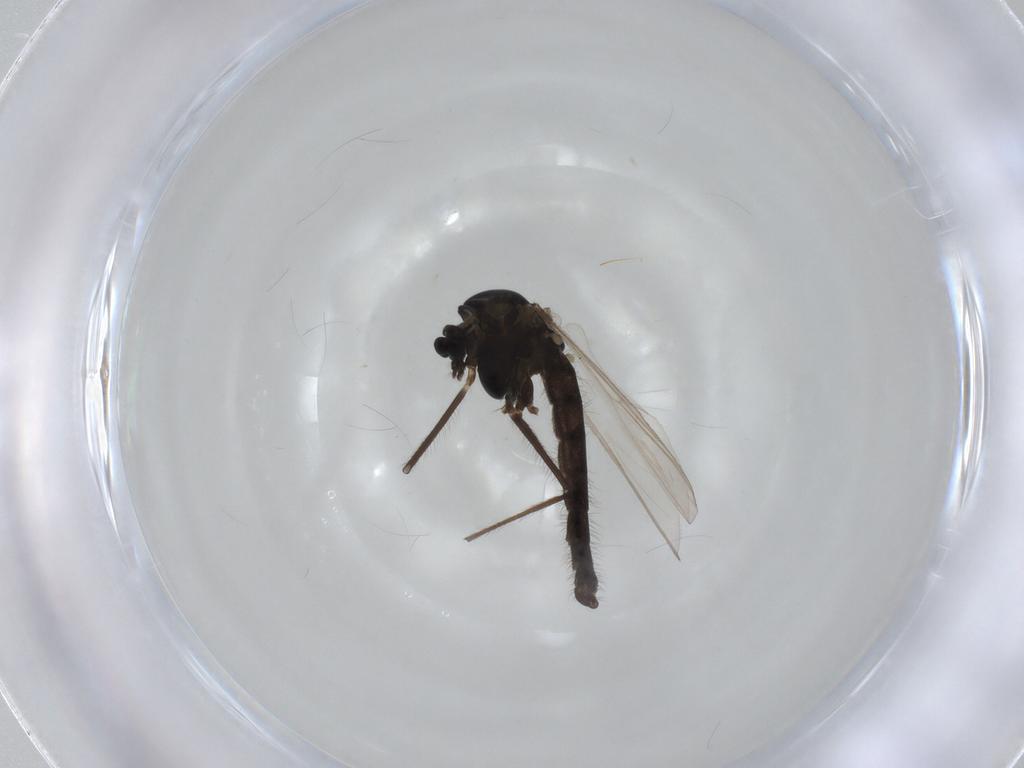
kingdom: Animalia
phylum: Arthropoda
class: Insecta
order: Diptera
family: Chironomidae
